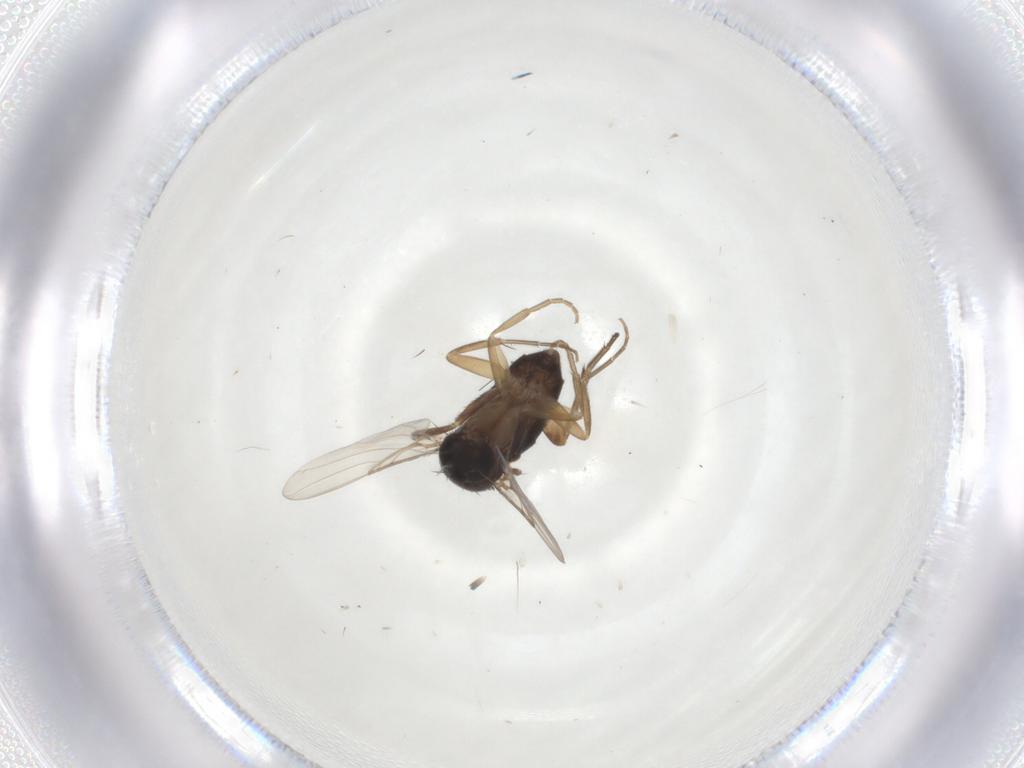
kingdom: Animalia
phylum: Arthropoda
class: Insecta
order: Diptera
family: Phoridae
